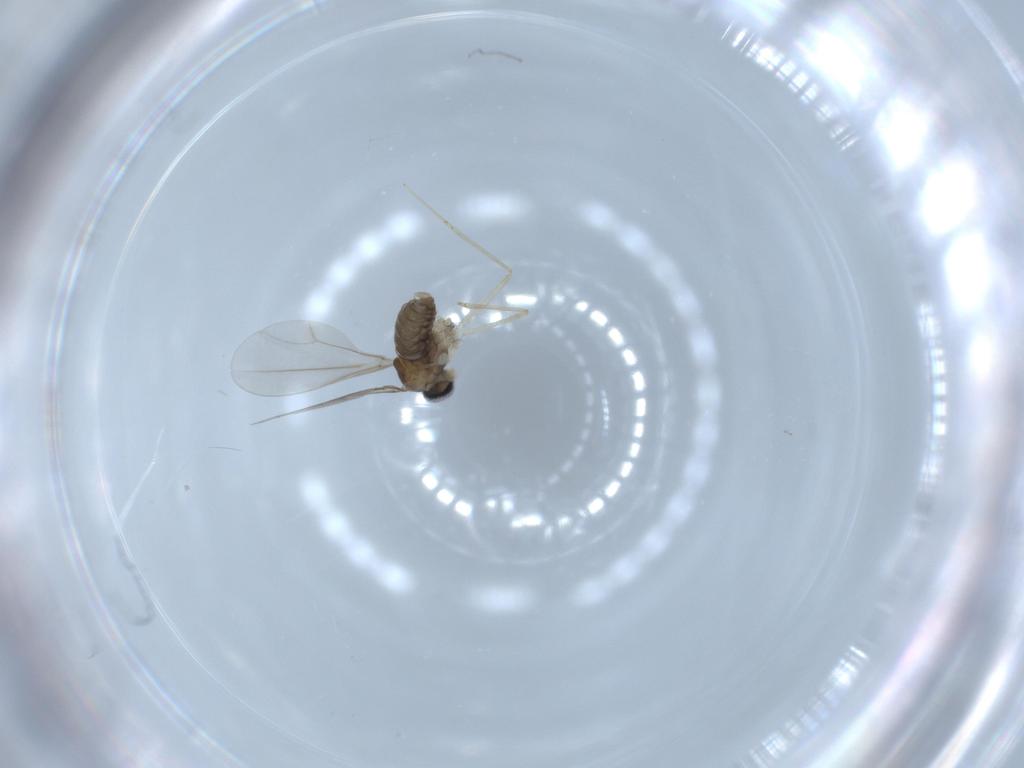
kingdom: Animalia
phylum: Arthropoda
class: Insecta
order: Diptera
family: Cecidomyiidae
